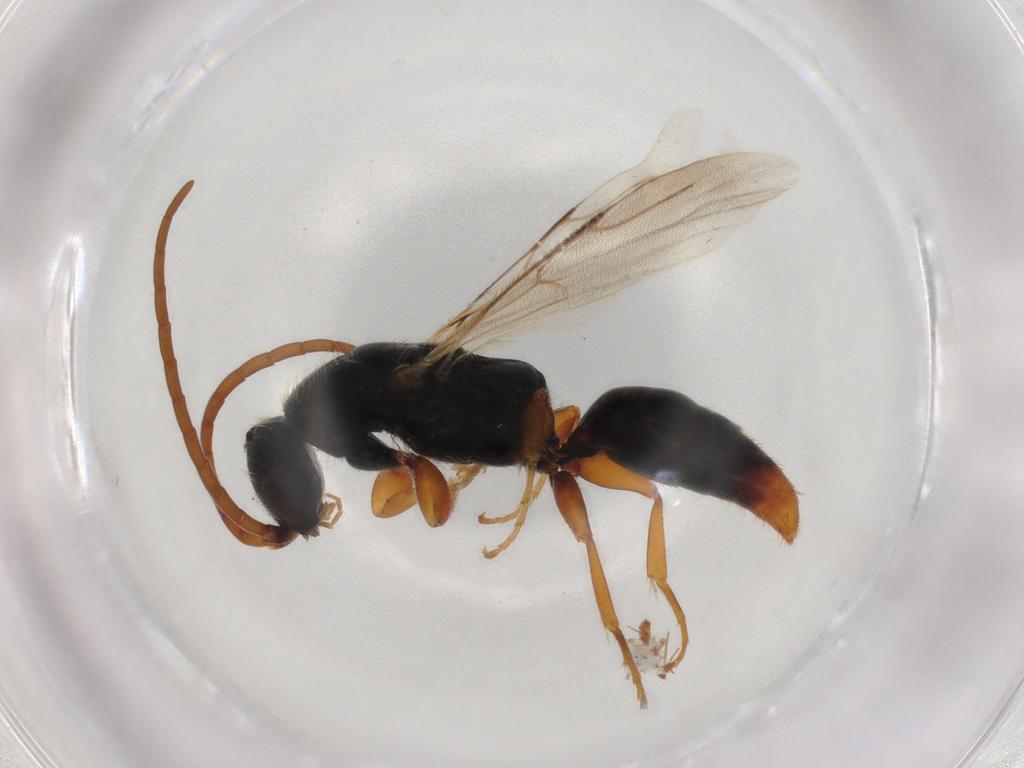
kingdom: Animalia
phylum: Arthropoda
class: Insecta
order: Hymenoptera
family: Bethylidae
